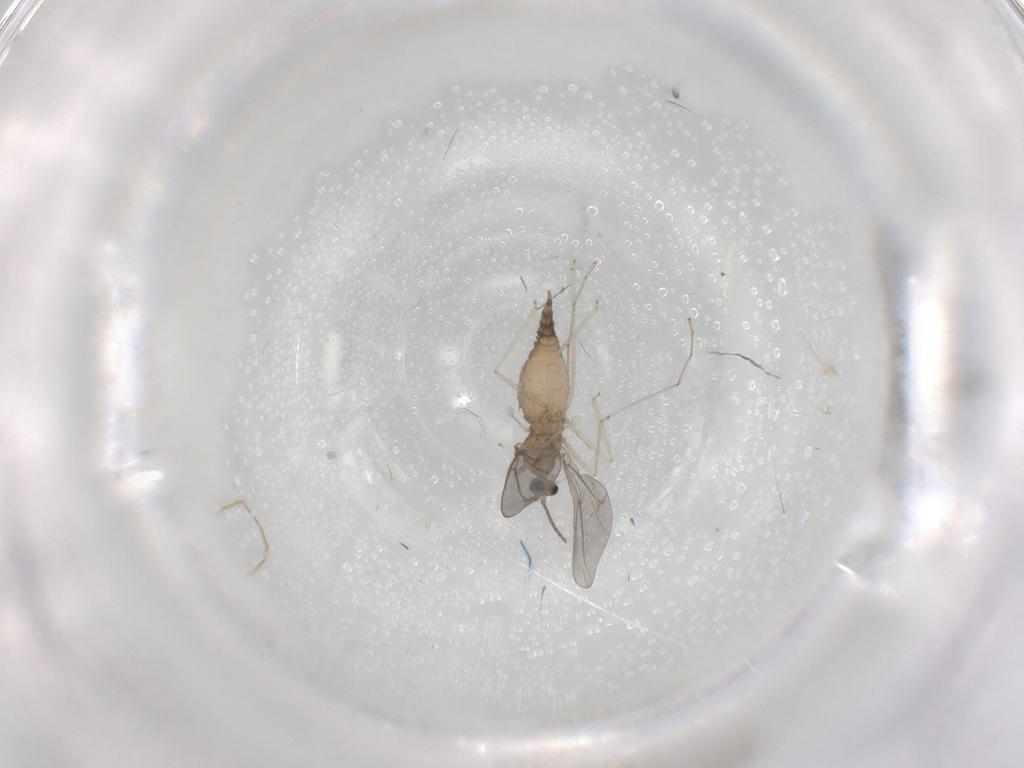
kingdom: Animalia
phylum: Arthropoda
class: Insecta
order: Diptera
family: Cecidomyiidae
